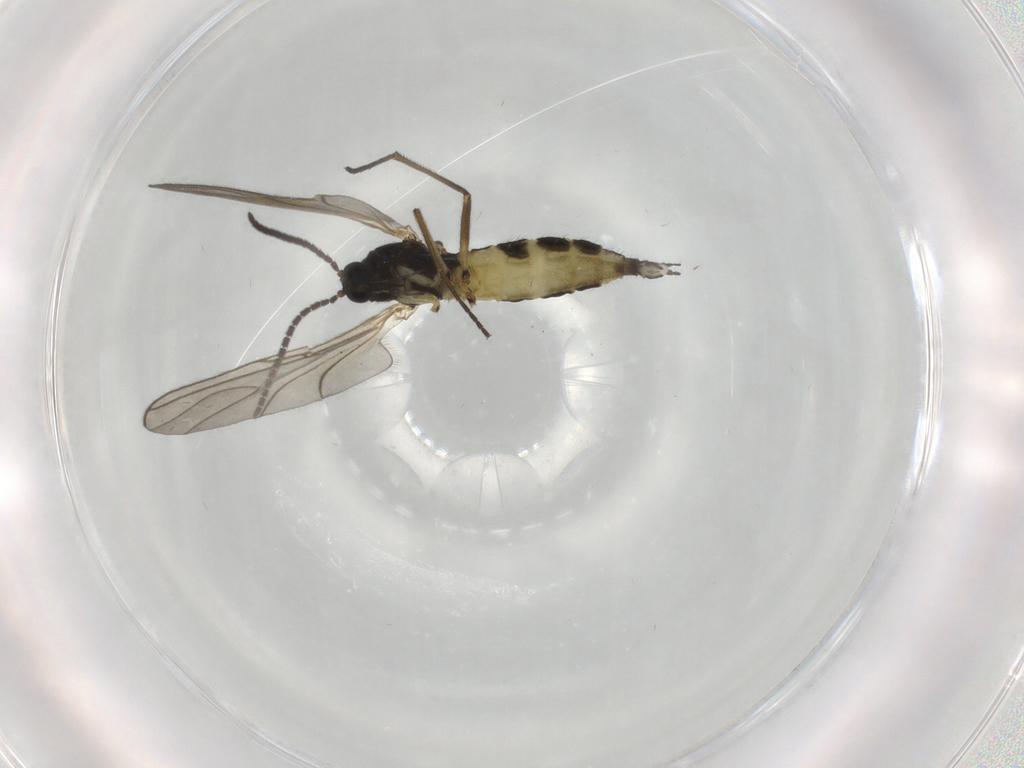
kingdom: Animalia
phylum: Arthropoda
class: Insecta
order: Diptera
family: Sciaridae
